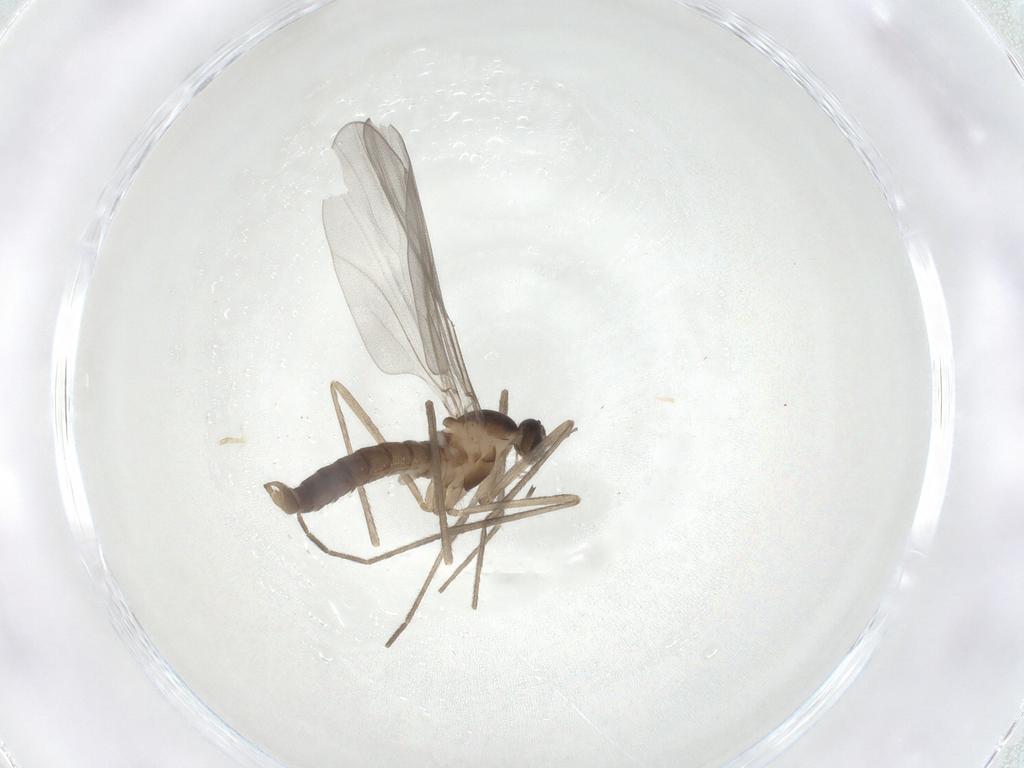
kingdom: Animalia
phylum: Arthropoda
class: Insecta
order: Diptera
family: Cecidomyiidae
